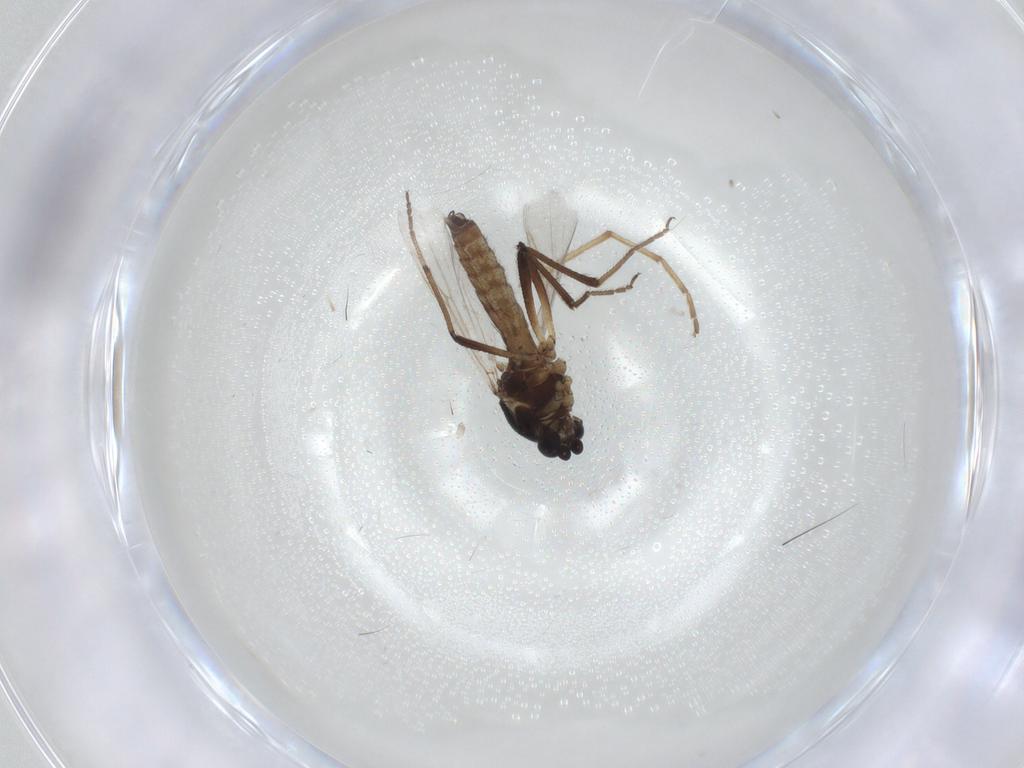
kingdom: Animalia
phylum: Arthropoda
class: Insecta
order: Diptera
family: Ceratopogonidae
